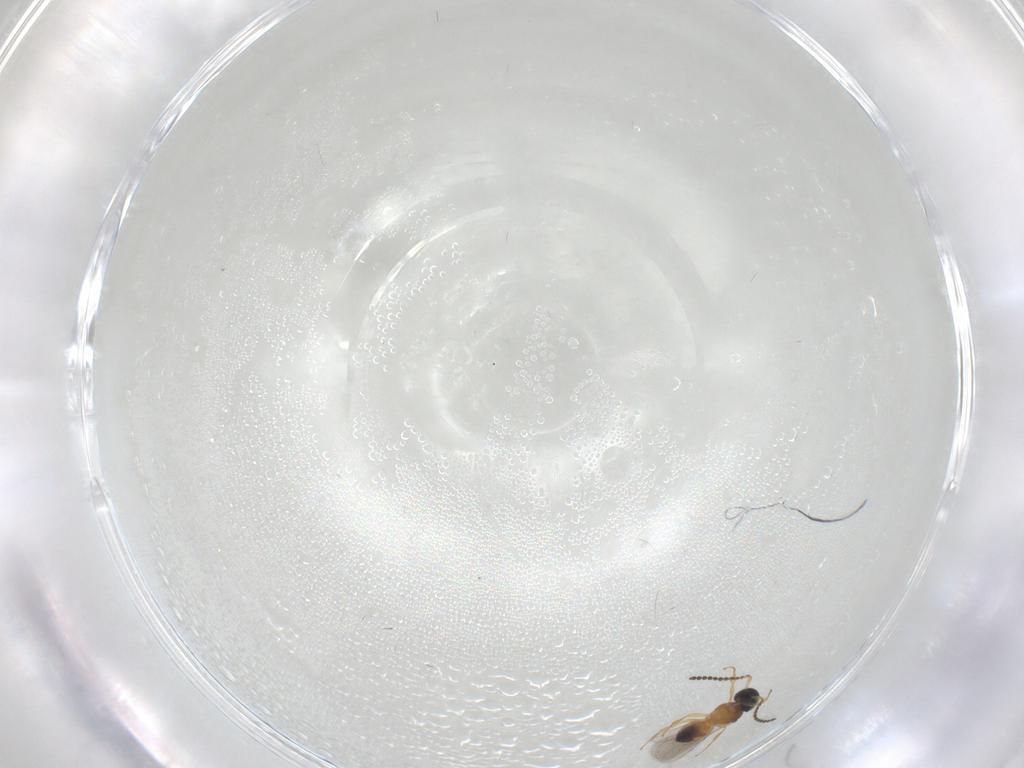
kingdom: Animalia
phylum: Arthropoda
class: Insecta
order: Hymenoptera
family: Scelionidae
